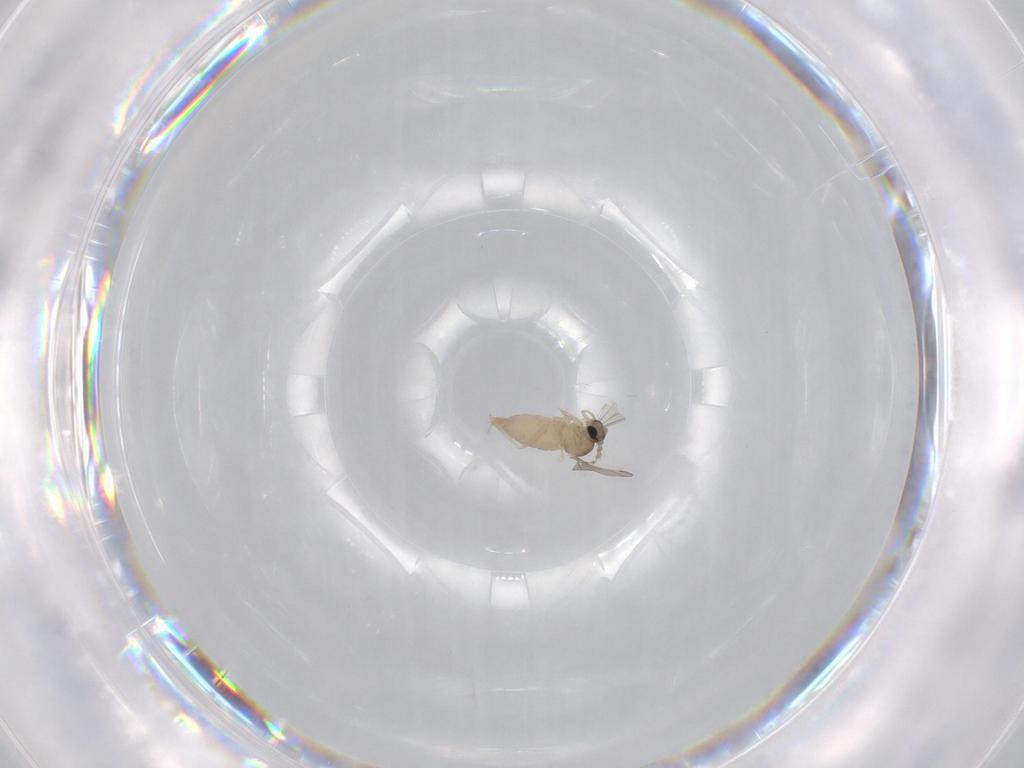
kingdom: Animalia
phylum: Arthropoda
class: Insecta
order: Diptera
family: Cecidomyiidae
